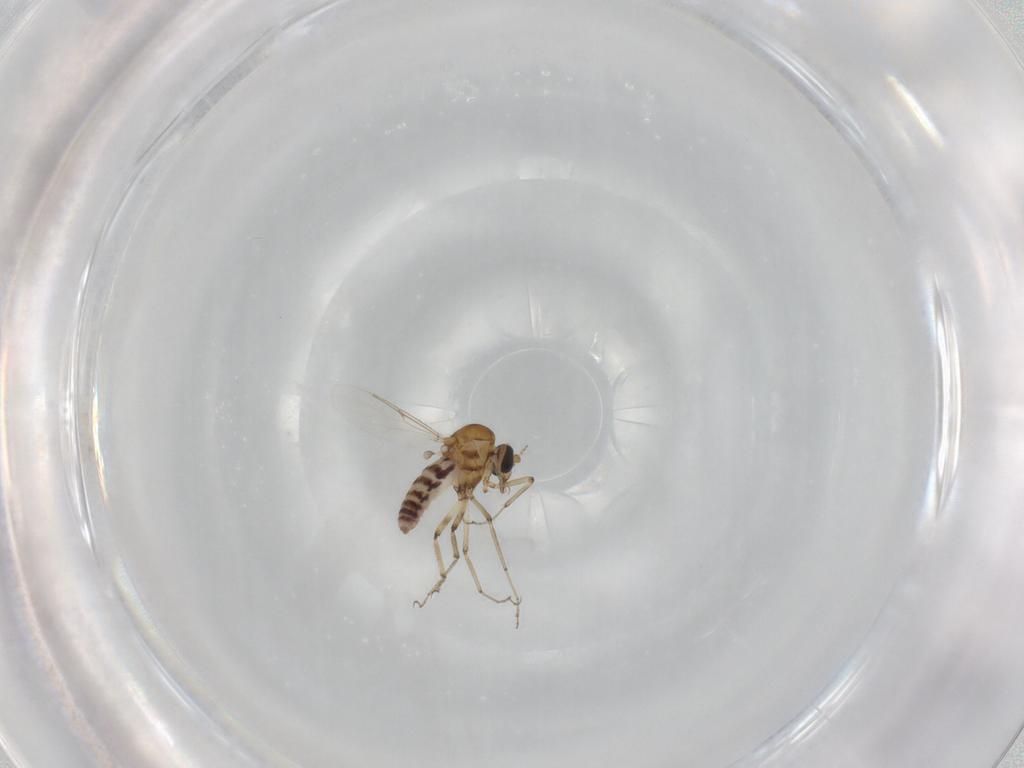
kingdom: Animalia
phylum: Arthropoda
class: Insecta
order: Diptera
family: Ceratopogonidae
